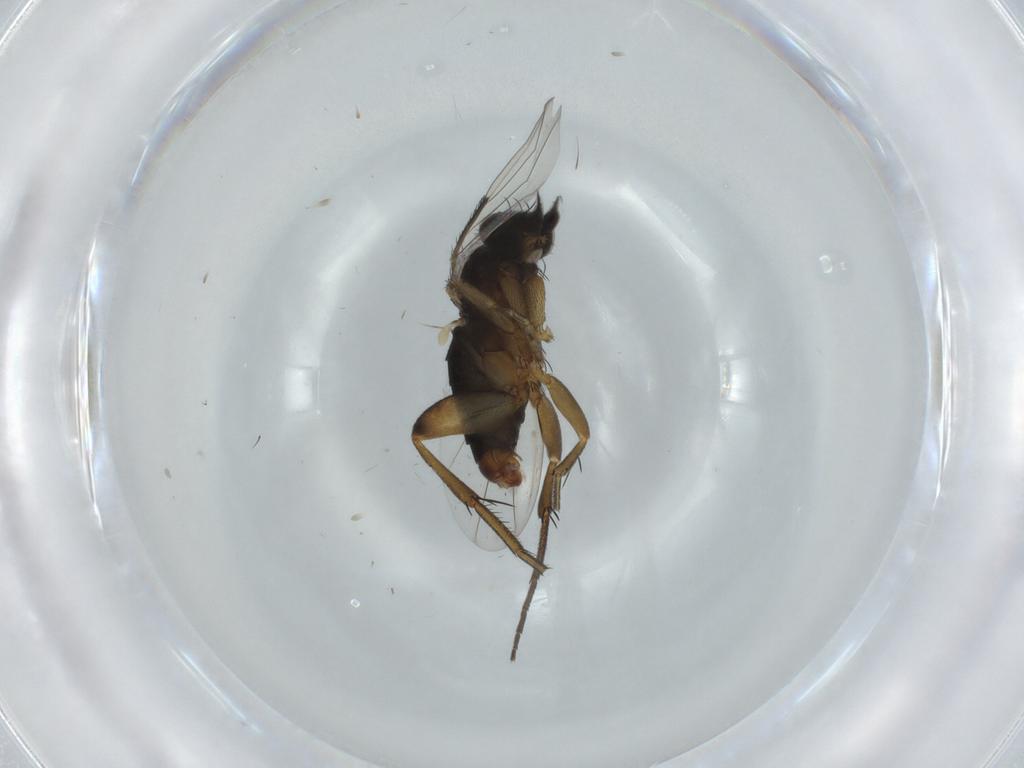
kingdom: Animalia
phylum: Arthropoda
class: Insecta
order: Diptera
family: Phoridae
